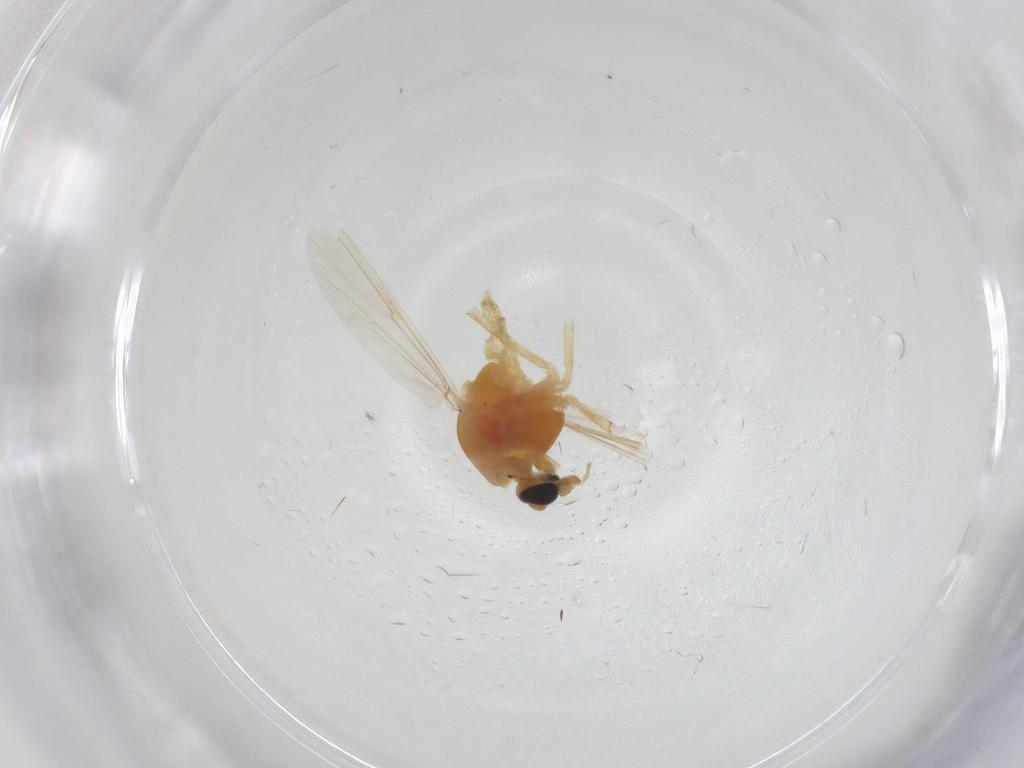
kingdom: Animalia
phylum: Arthropoda
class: Insecta
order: Diptera
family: Chironomidae
